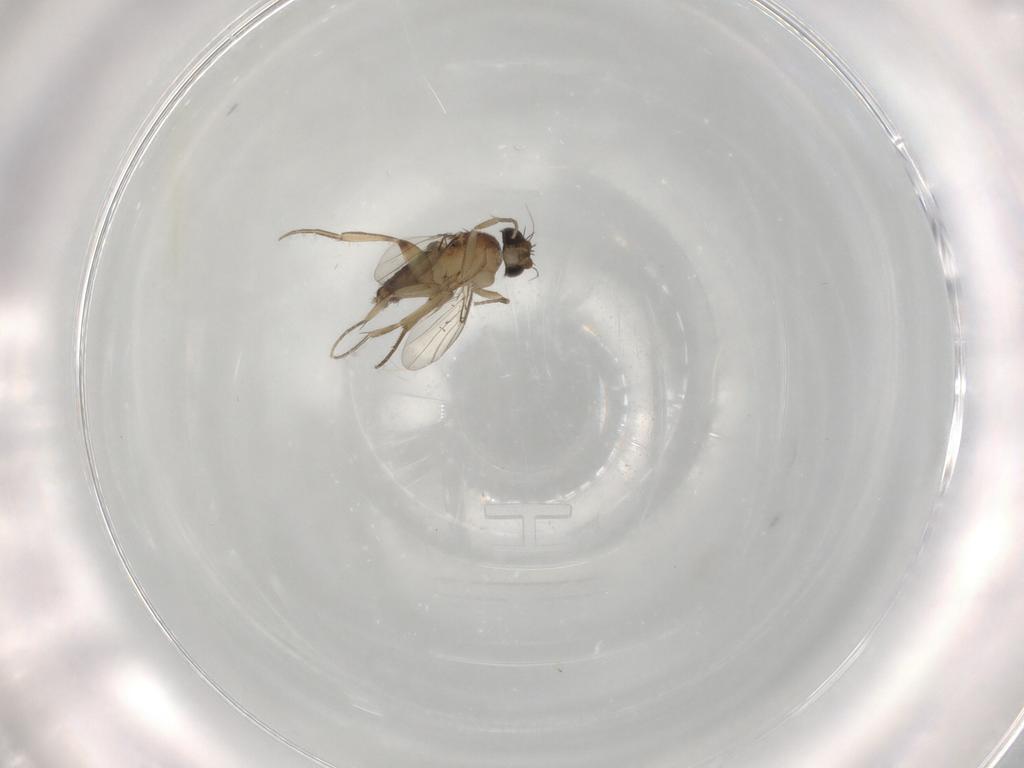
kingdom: Animalia
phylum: Arthropoda
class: Insecta
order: Diptera
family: Phoridae
